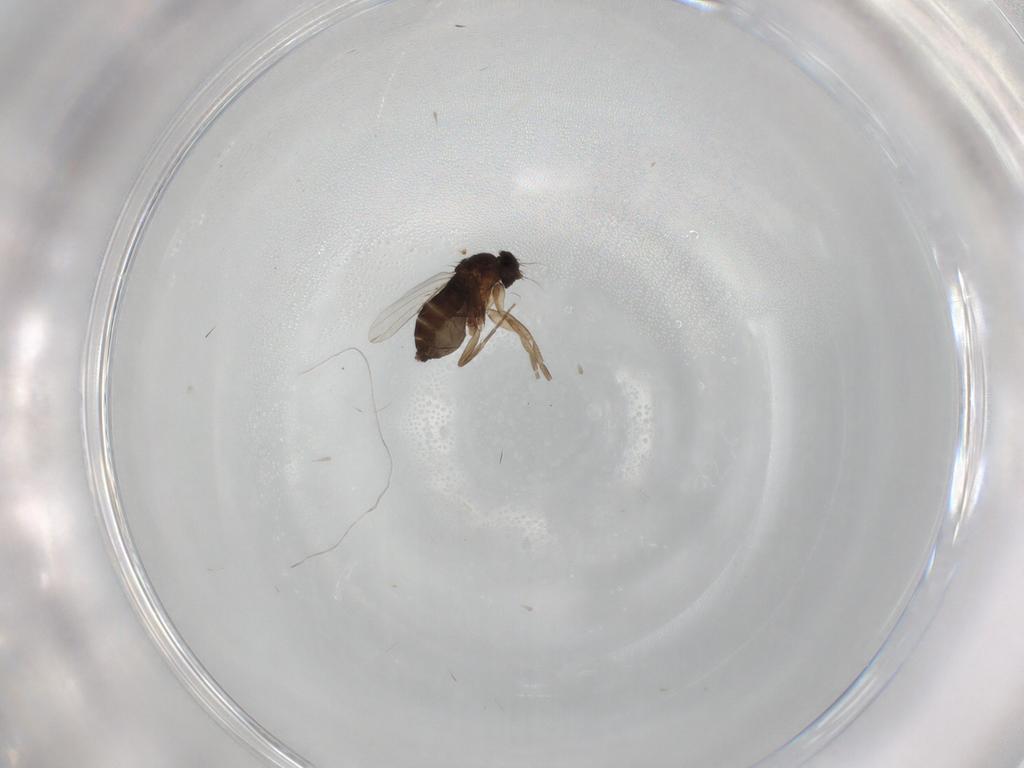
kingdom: Animalia
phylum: Arthropoda
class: Insecta
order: Diptera
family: Phoridae
